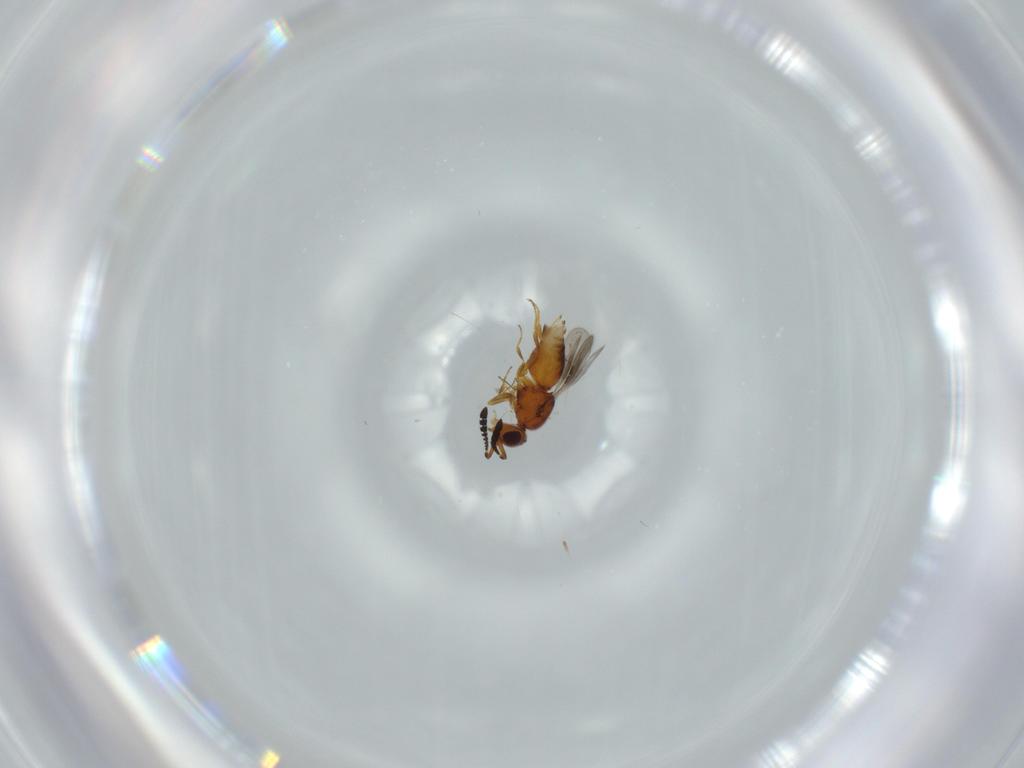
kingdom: Animalia
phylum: Arthropoda
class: Insecta
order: Hymenoptera
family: Ceraphronidae
